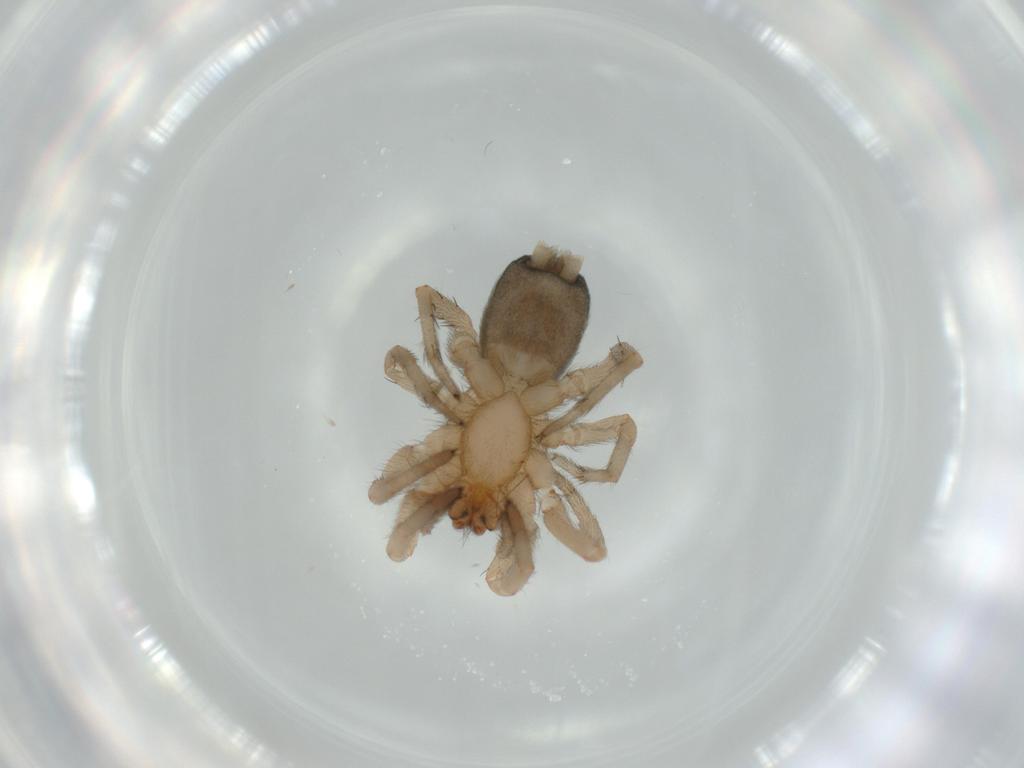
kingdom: Animalia
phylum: Arthropoda
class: Arachnida
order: Araneae
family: Gnaphosidae
